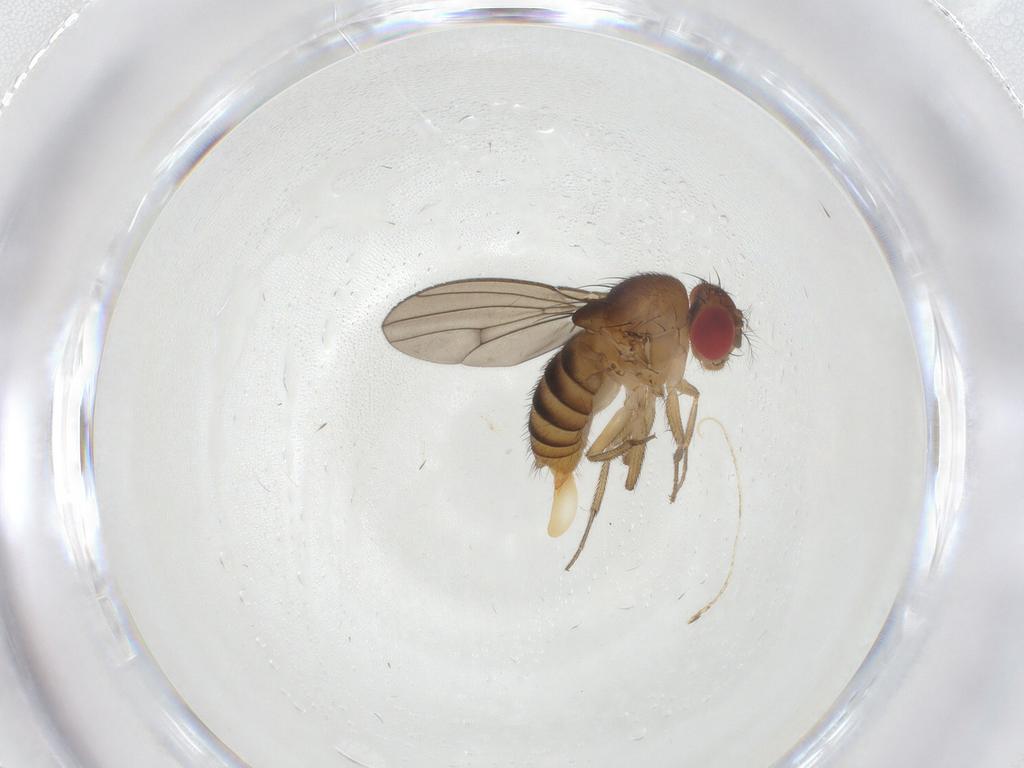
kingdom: Animalia
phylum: Arthropoda
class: Insecta
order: Diptera
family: Drosophilidae
